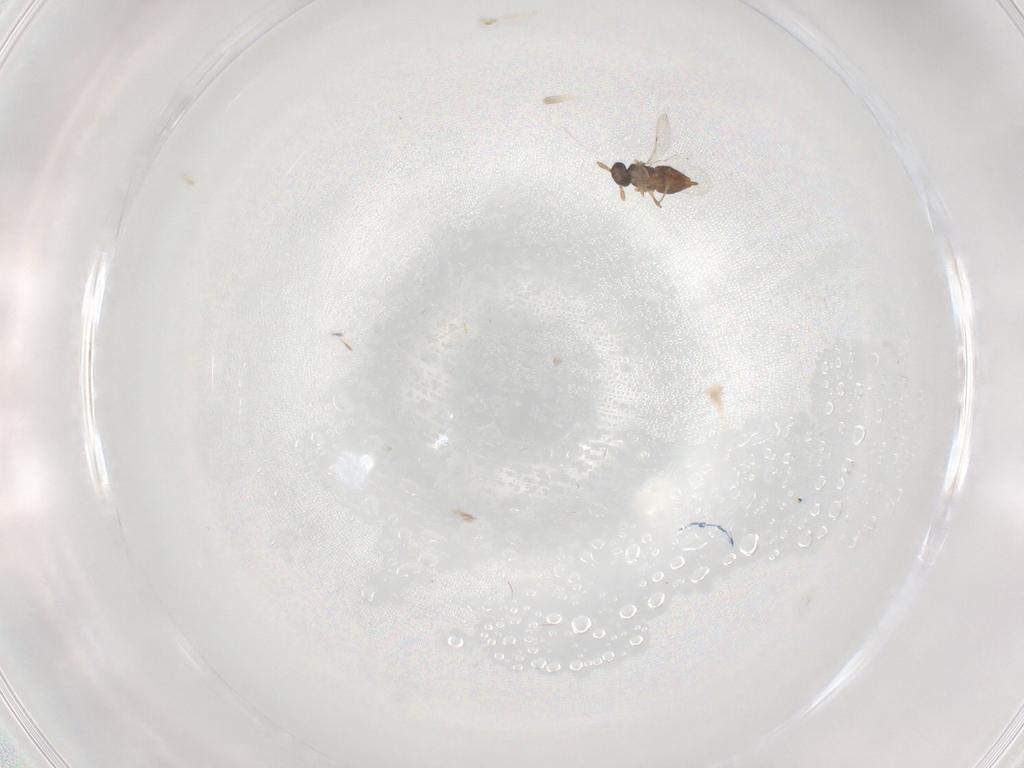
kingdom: Animalia
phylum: Arthropoda
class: Insecta
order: Hymenoptera
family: Encyrtidae
